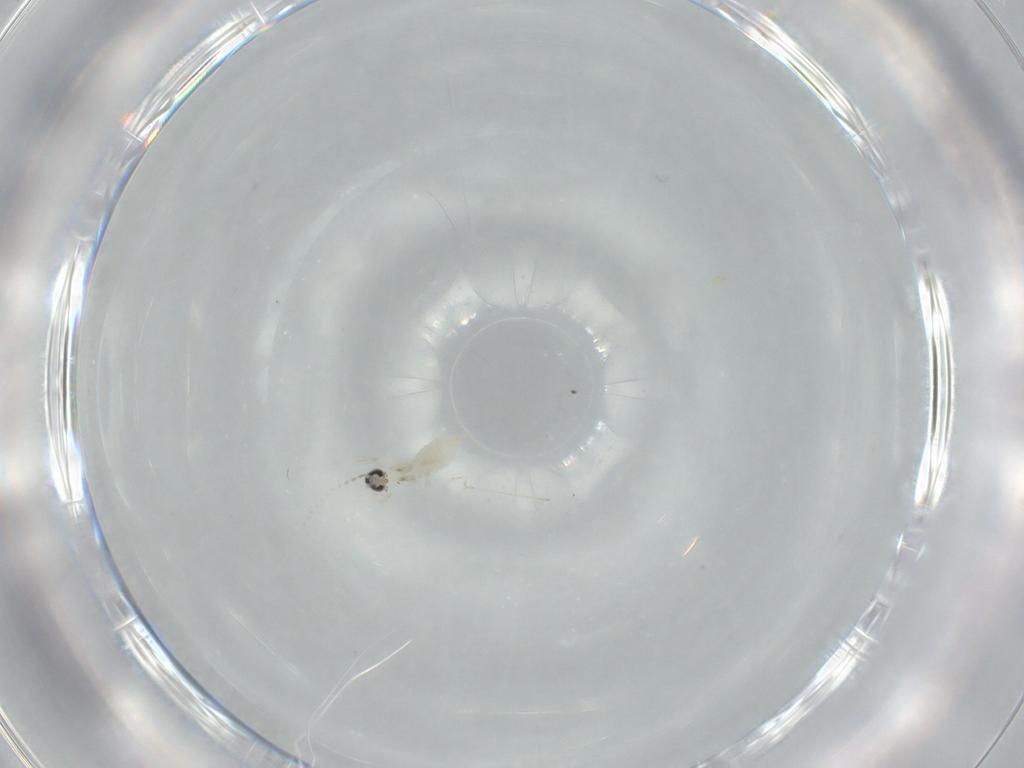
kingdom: Animalia
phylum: Arthropoda
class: Insecta
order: Diptera
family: Cecidomyiidae
